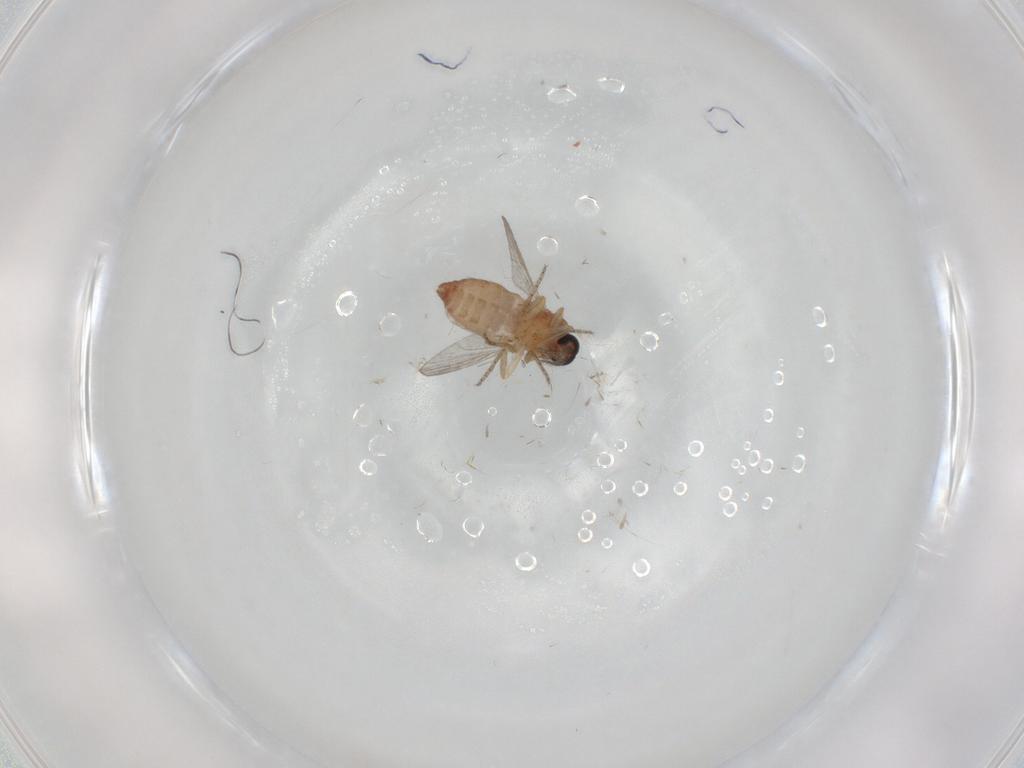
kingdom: Animalia
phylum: Arthropoda
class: Insecta
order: Diptera
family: Ceratopogonidae
